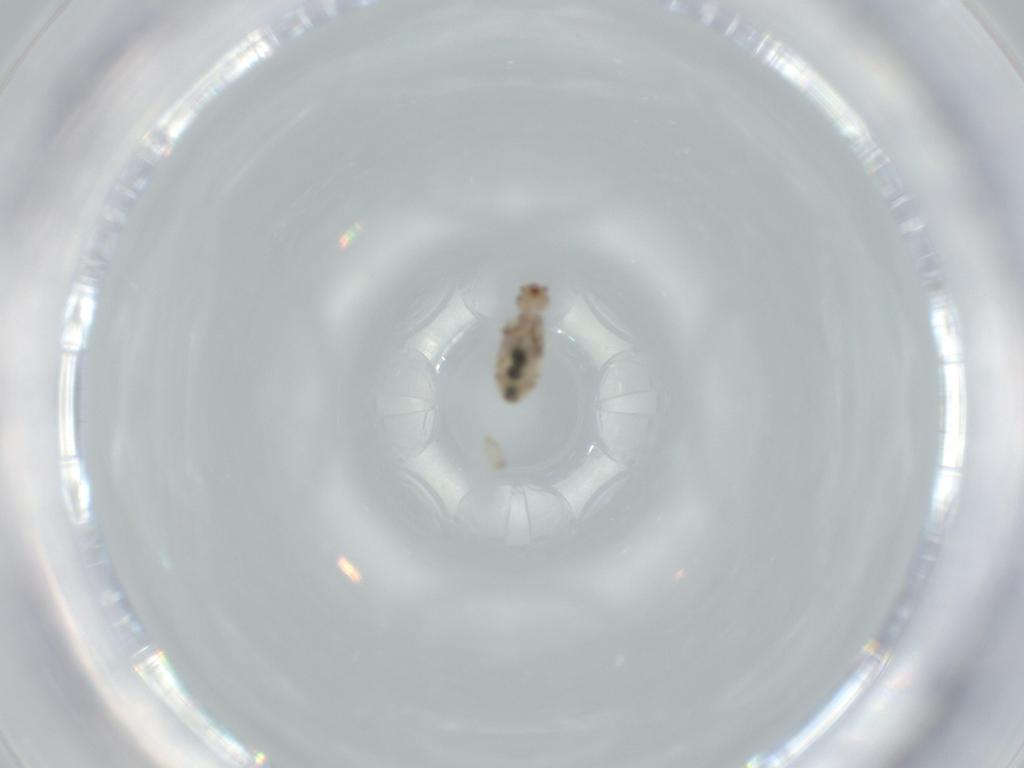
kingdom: Animalia
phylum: Arthropoda
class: Insecta
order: Psocodea
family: Liposcelididae
